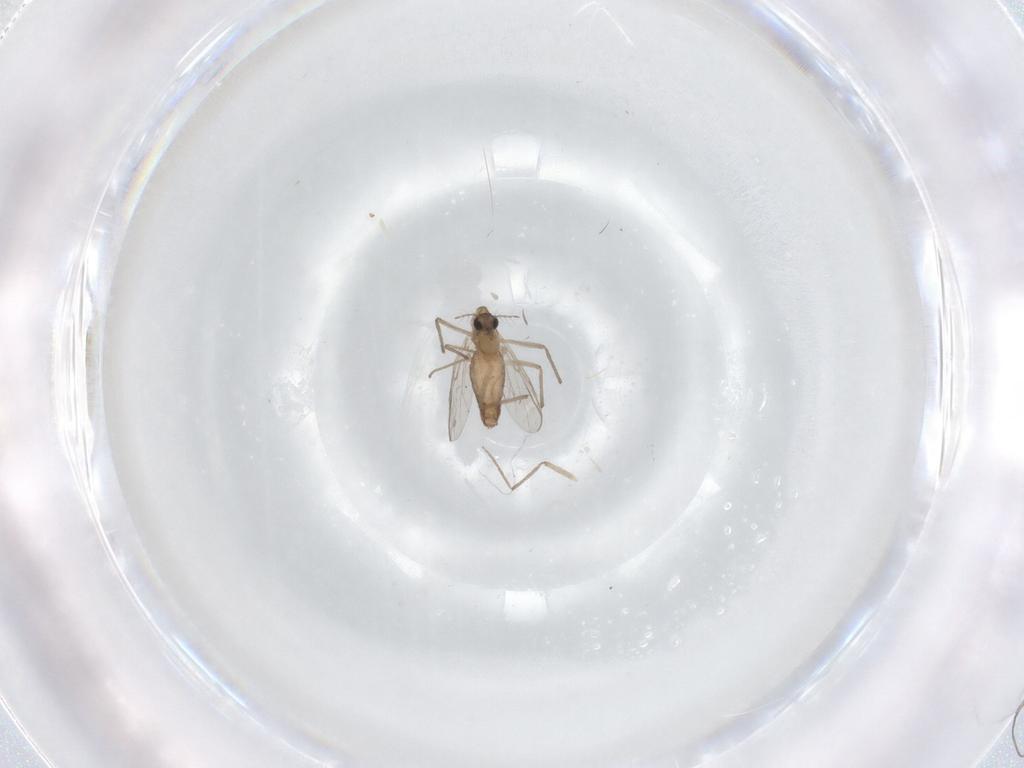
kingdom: Animalia
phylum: Arthropoda
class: Insecta
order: Diptera
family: Chironomidae
